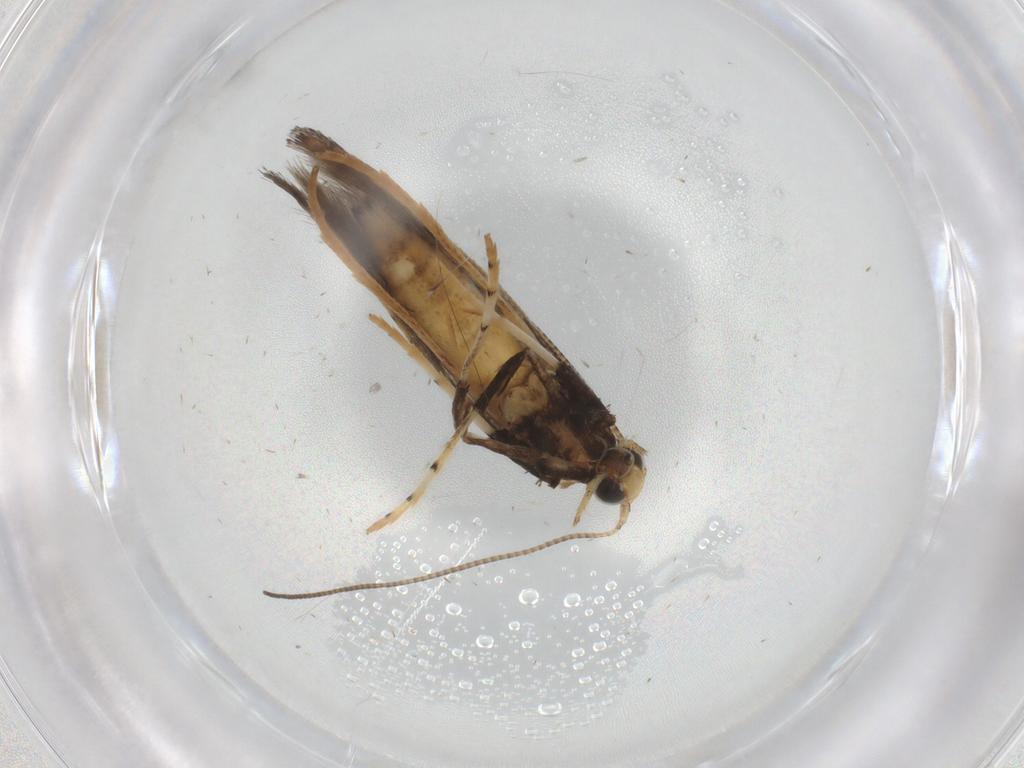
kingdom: Animalia
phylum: Arthropoda
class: Insecta
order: Lepidoptera
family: Gracillariidae
